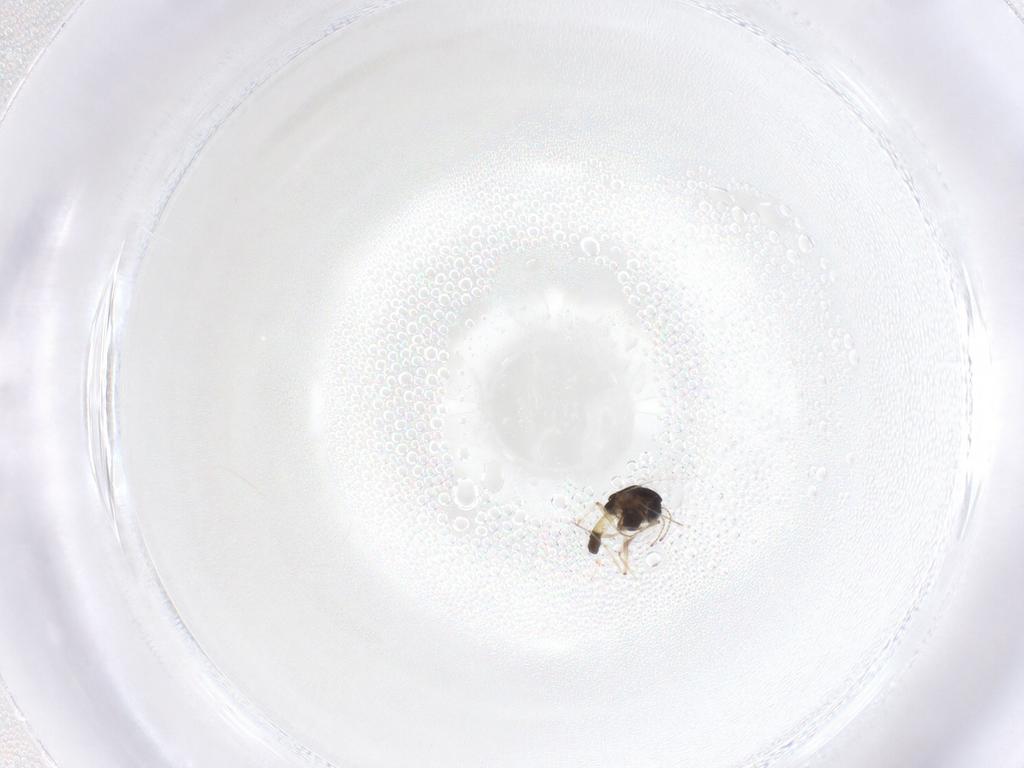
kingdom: Animalia
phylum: Arthropoda
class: Insecta
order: Diptera
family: Chironomidae
